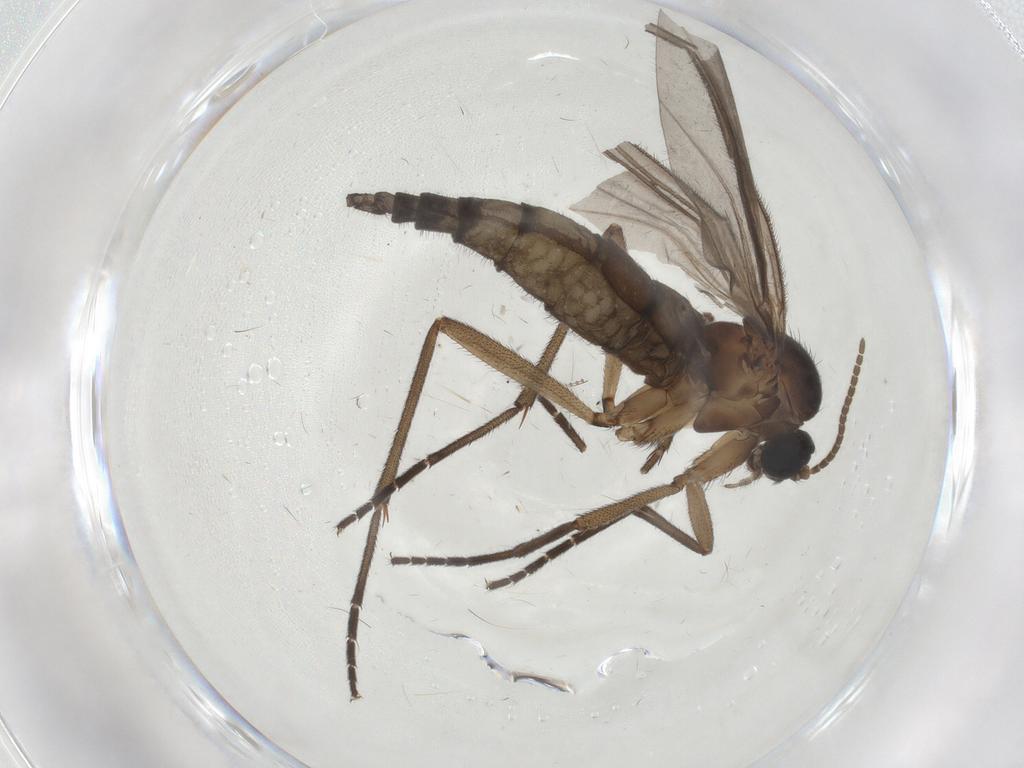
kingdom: Animalia
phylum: Arthropoda
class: Insecta
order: Diptera
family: Sciaridae
